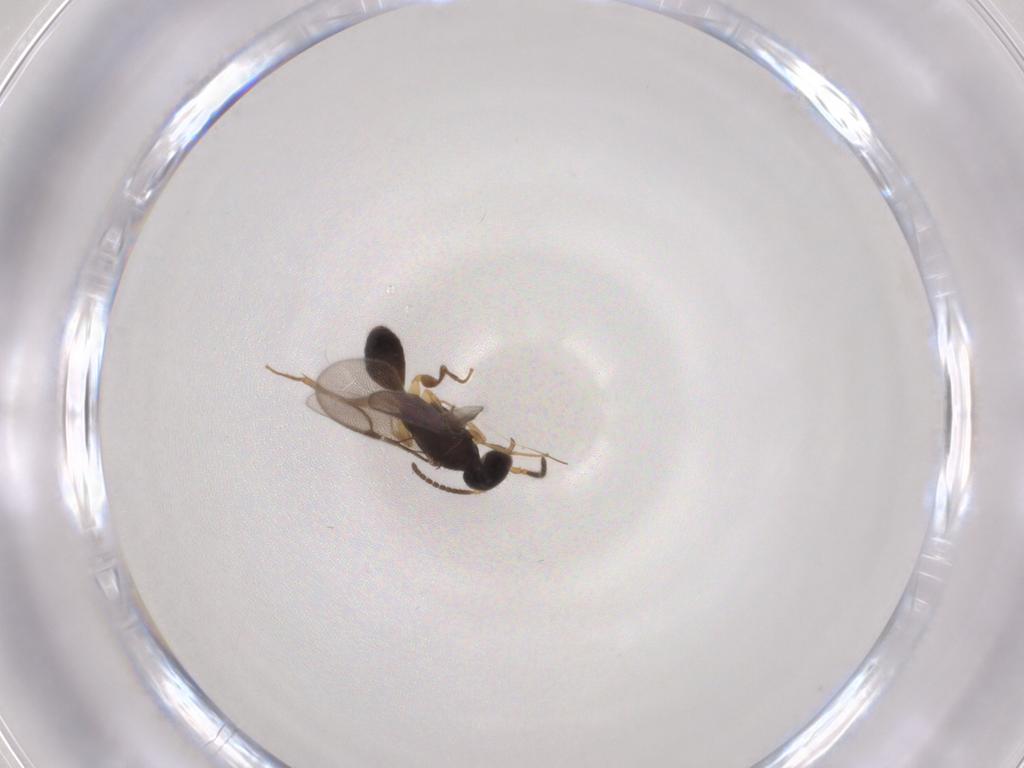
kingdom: Animalia
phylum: Arthropoda
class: Insecta
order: Hymenoptera
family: Bethylidae
